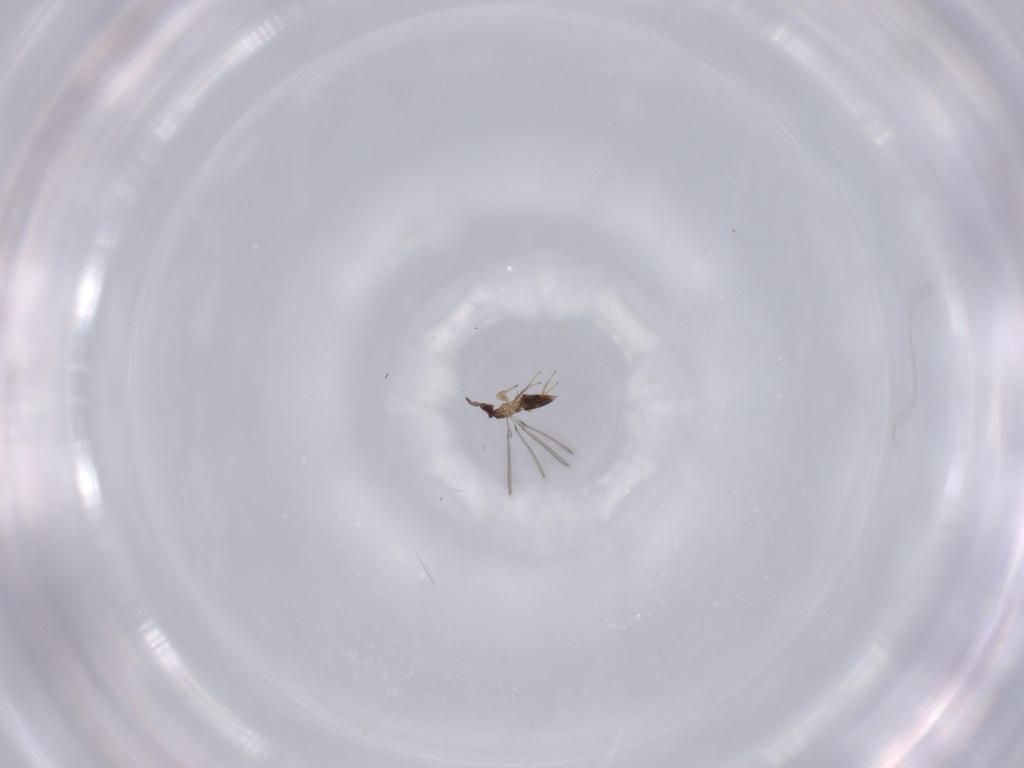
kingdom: Animalia
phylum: Arthropoda
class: Insecta
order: Hymenoptera
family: Mymaridae
